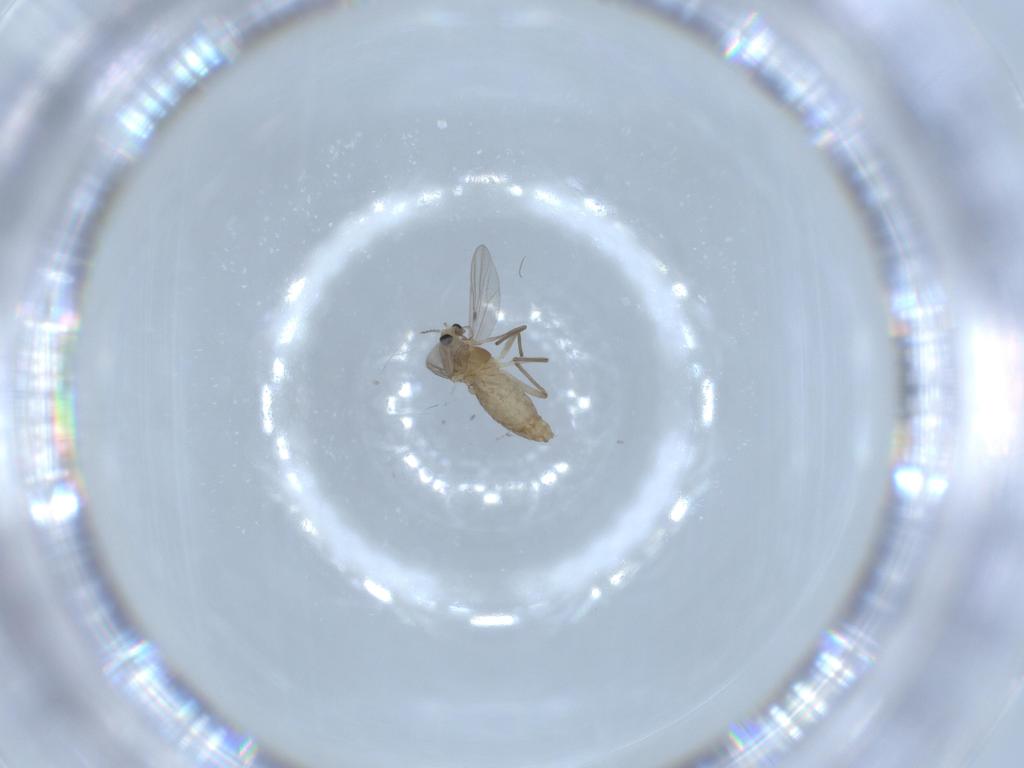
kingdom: Animalia
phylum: Arthropoda
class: Insecta
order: Diptera
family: Chironomidae
